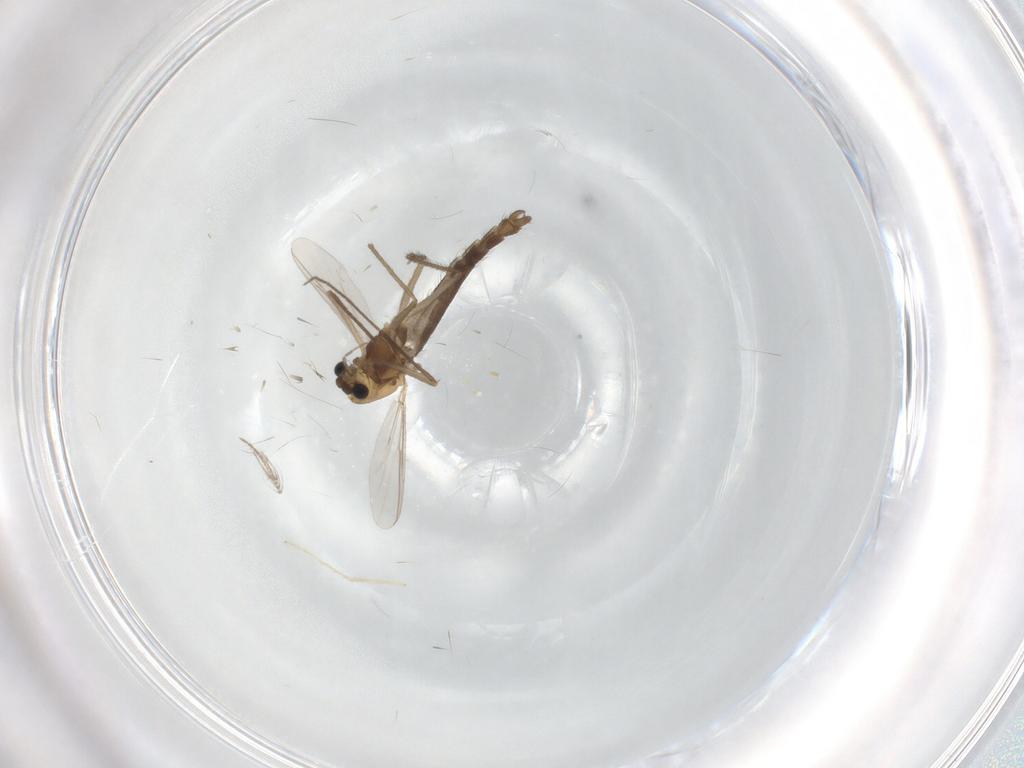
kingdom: Animalia
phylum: Arthropoda
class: Insecta
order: Diptera
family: Chironomidae
